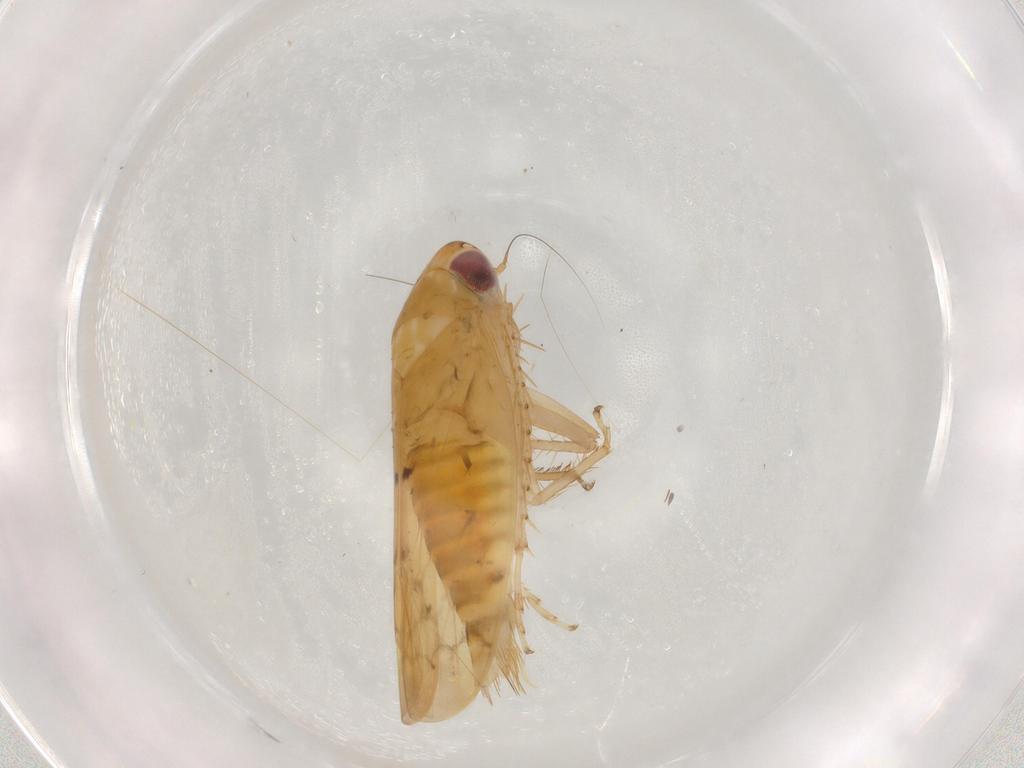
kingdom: Animalia
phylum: Arthropoda
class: Insecta
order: Hemiptera
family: Cicadellidae
